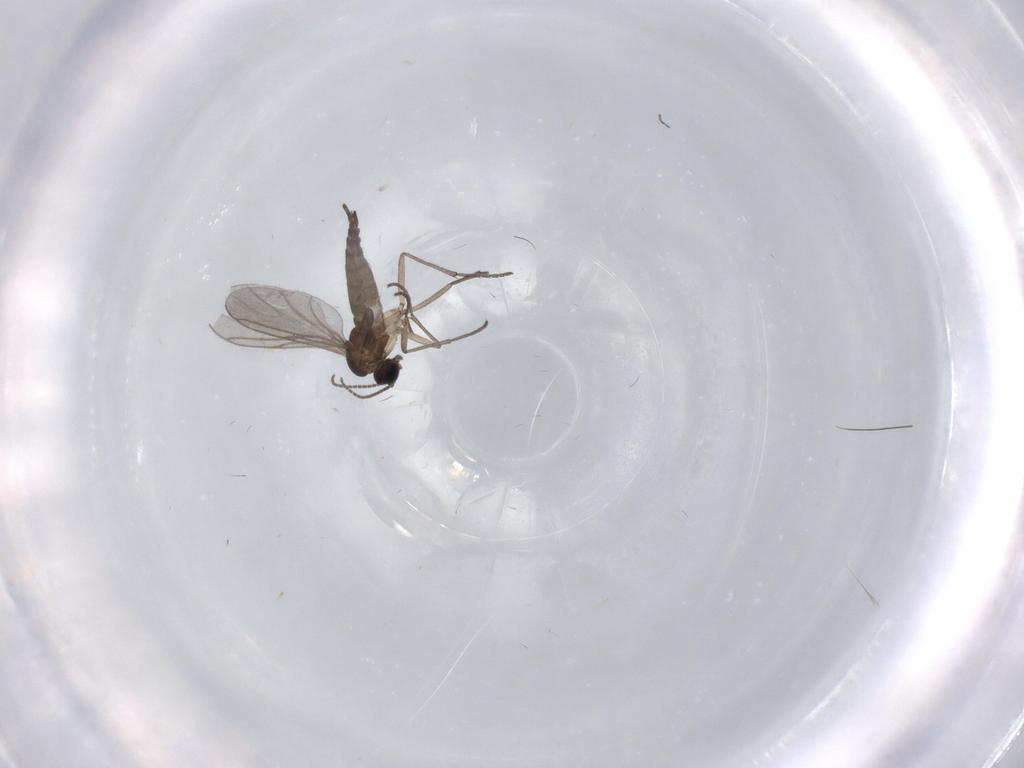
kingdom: Animalia
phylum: Arthropoda
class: Insecta
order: Diptera
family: Sciaridae
